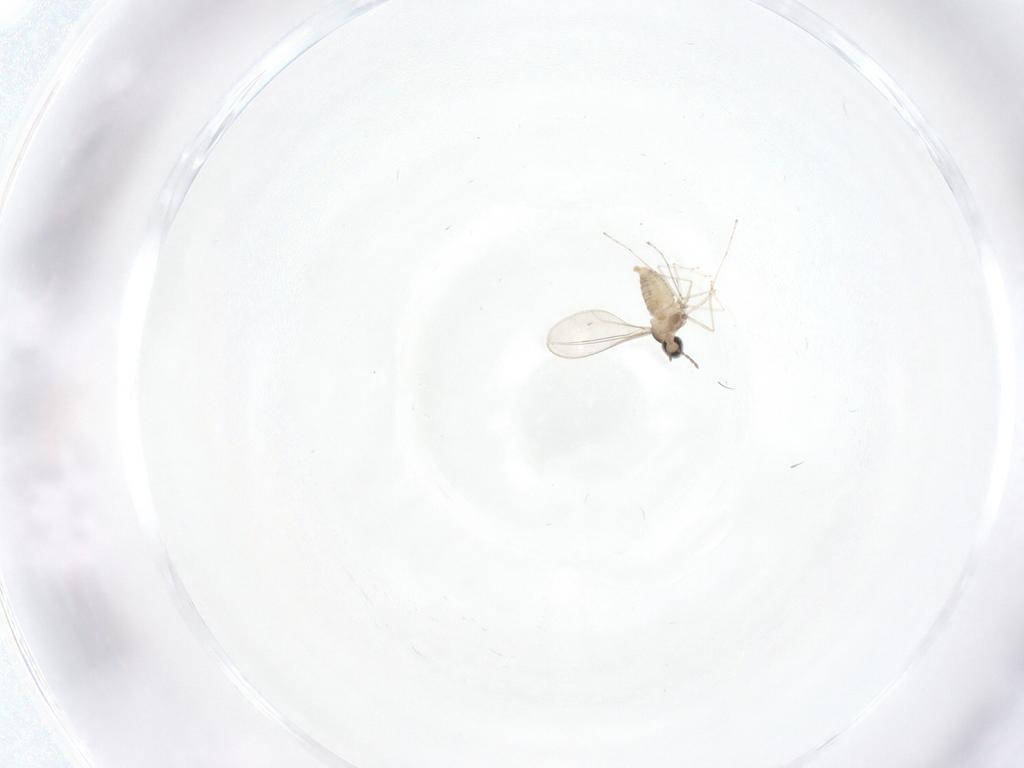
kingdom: Animalia
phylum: Arthropoda
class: Insecta
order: Diptera
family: Cecidomyiidae
